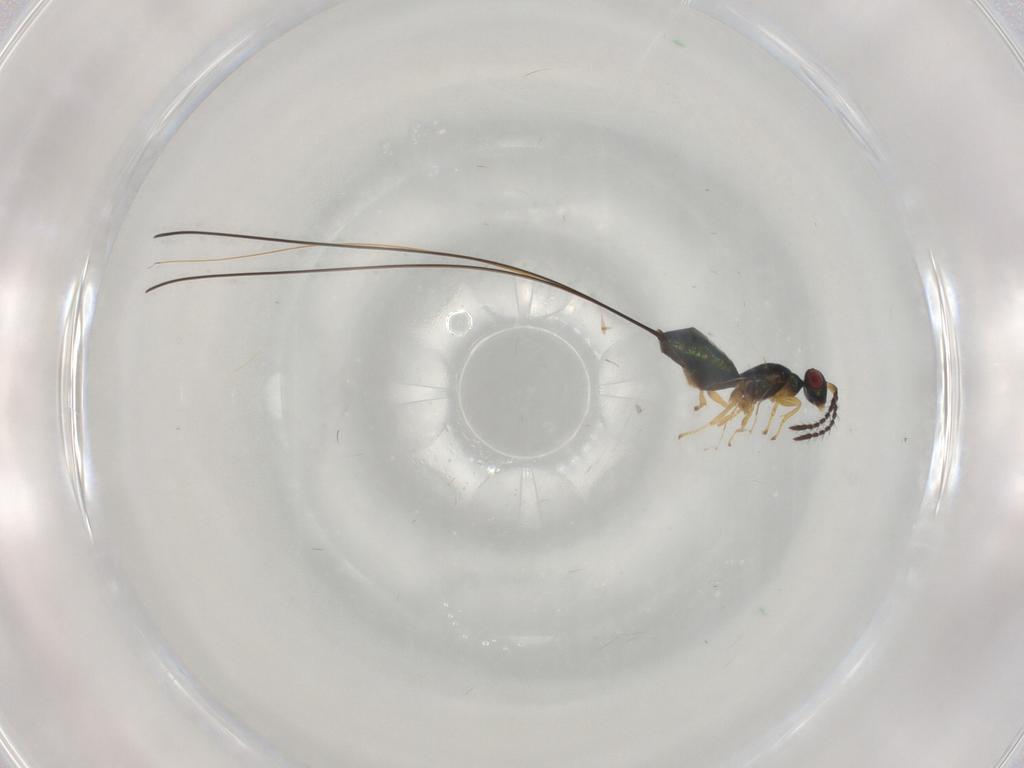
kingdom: Animalia
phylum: Arthropoda
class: Insecta
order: Hymenoptera
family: Pteromalidae
